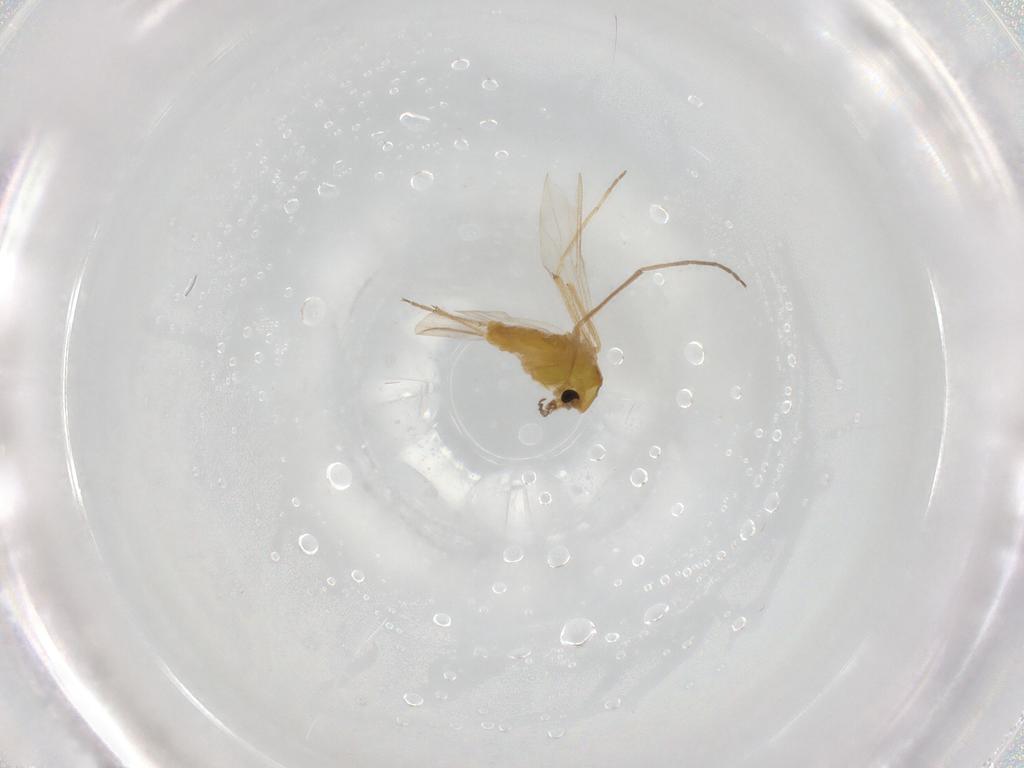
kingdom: Animalia
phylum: Arthropoda
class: Insecta
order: Diptera
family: Chironomidae
